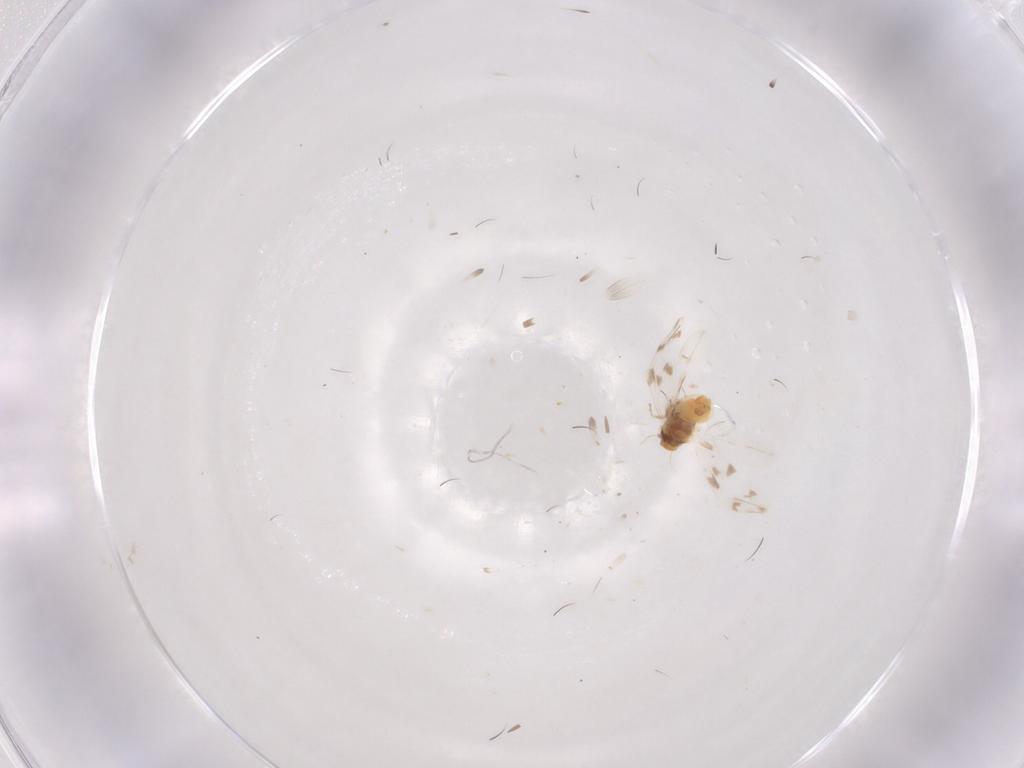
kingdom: Animalia
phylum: Arthropoda
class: Insecta
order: Hemiptera
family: Aleyrodidae
